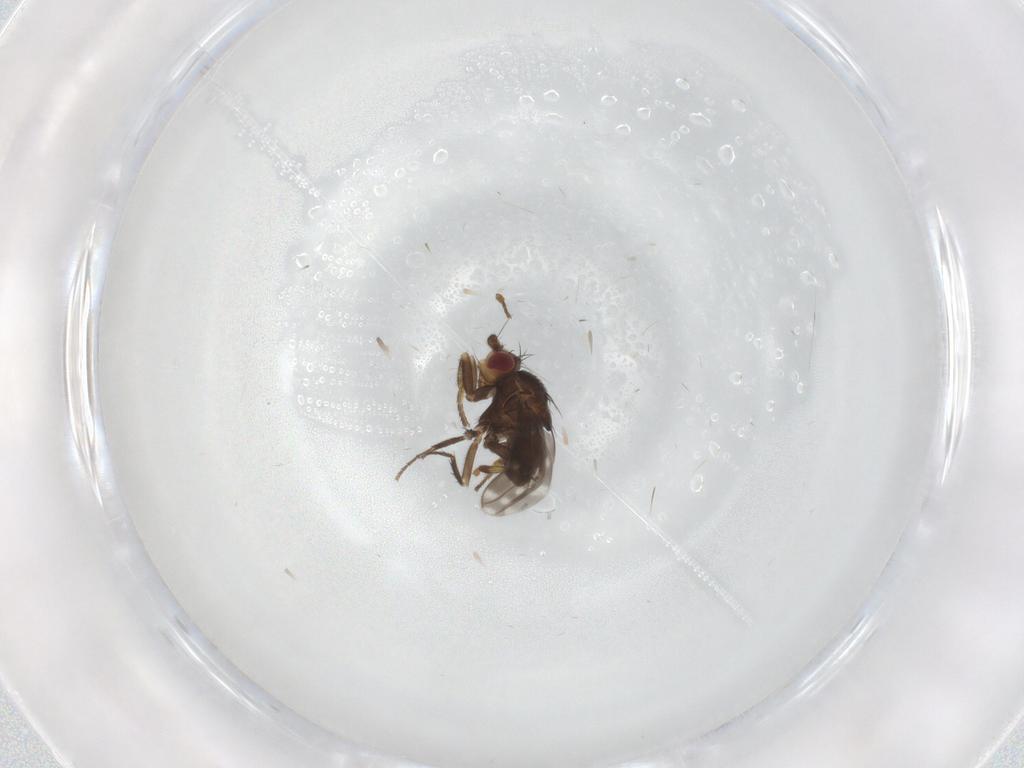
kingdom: Animalia
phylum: Arthropoda
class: Insecta
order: Diptera
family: Sphaeroceridae
